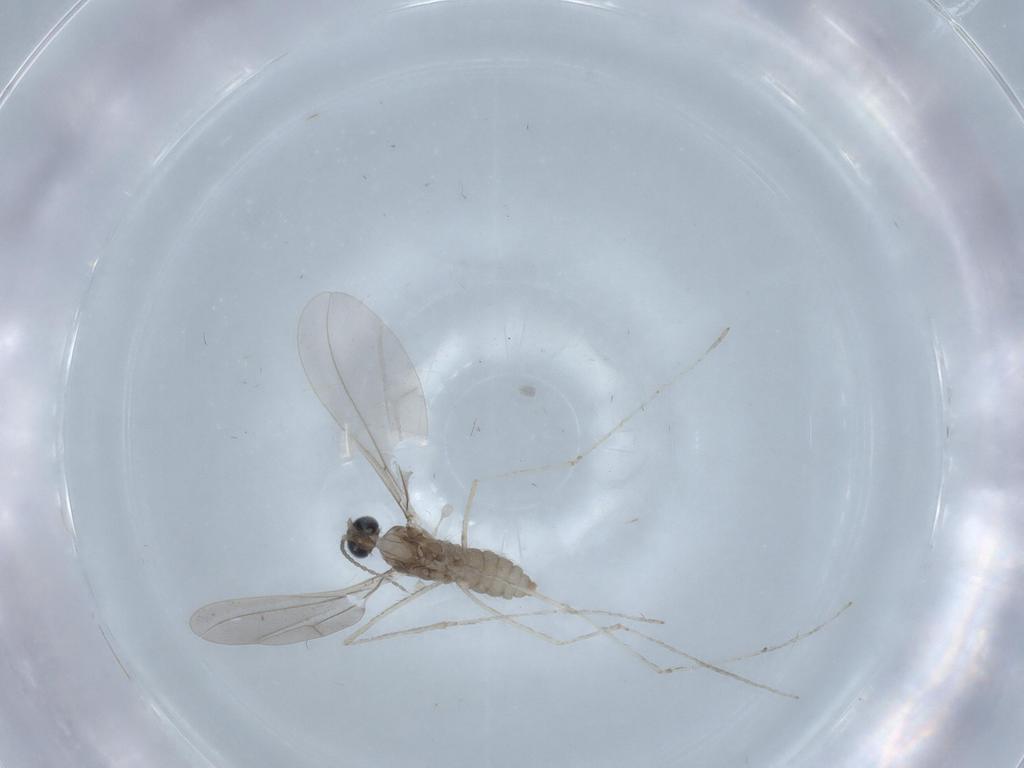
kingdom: Animalia
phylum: Arthropoda
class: Insecta
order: Diptera
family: Cecidomyiidae
